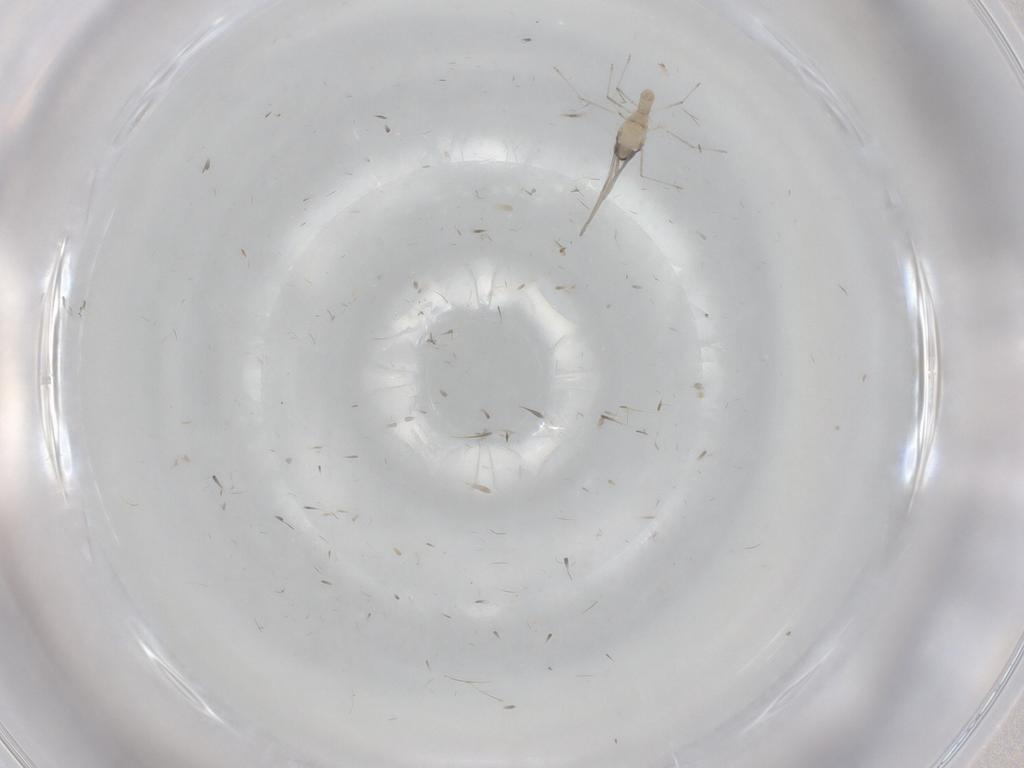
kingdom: Animalia
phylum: Arthropoda
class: Insecta
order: Diptera
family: Cecidomyiidae
